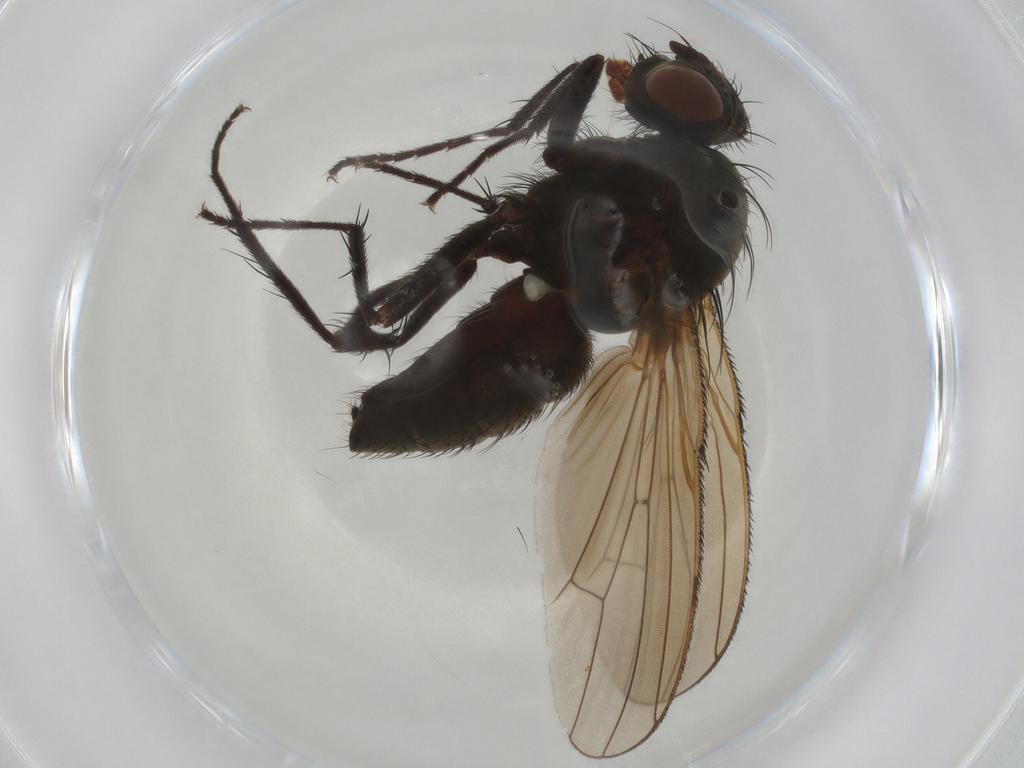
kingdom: Animalia
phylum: Arthropoda
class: Insecta
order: Diptera
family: Anthomyiidae
